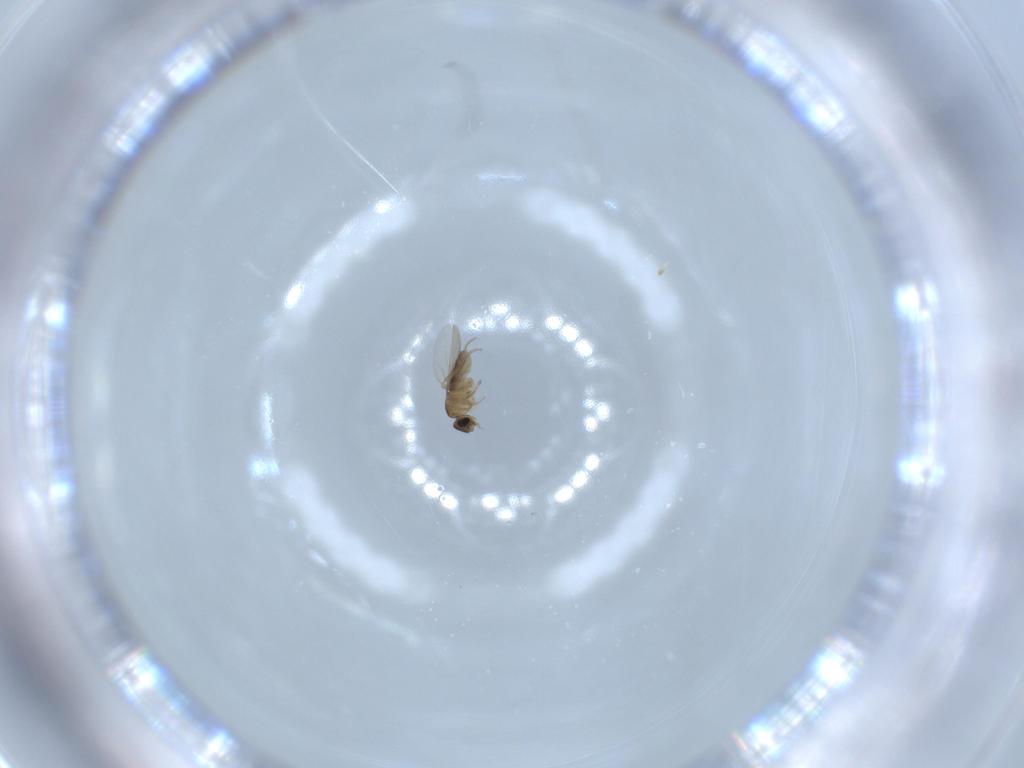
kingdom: Animalia
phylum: Arthropoda
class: Insecta
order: Diptera
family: Phoridae
